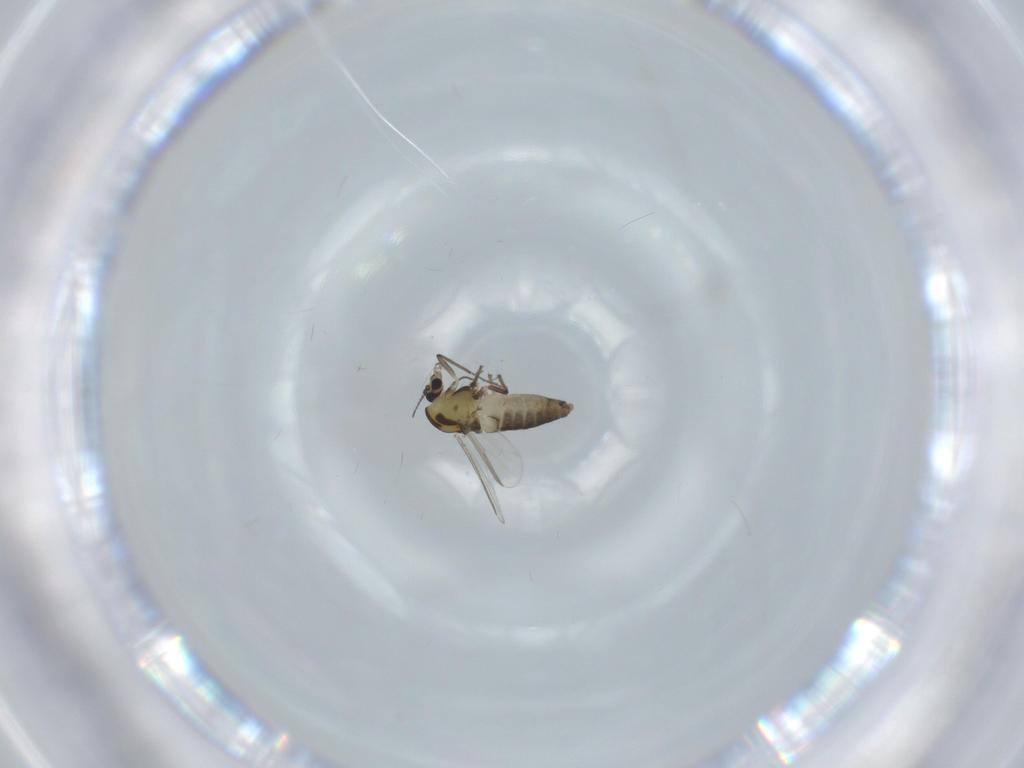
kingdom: Animalia
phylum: Arthropoda
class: Insecta
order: Diptera
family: Chironomidae
